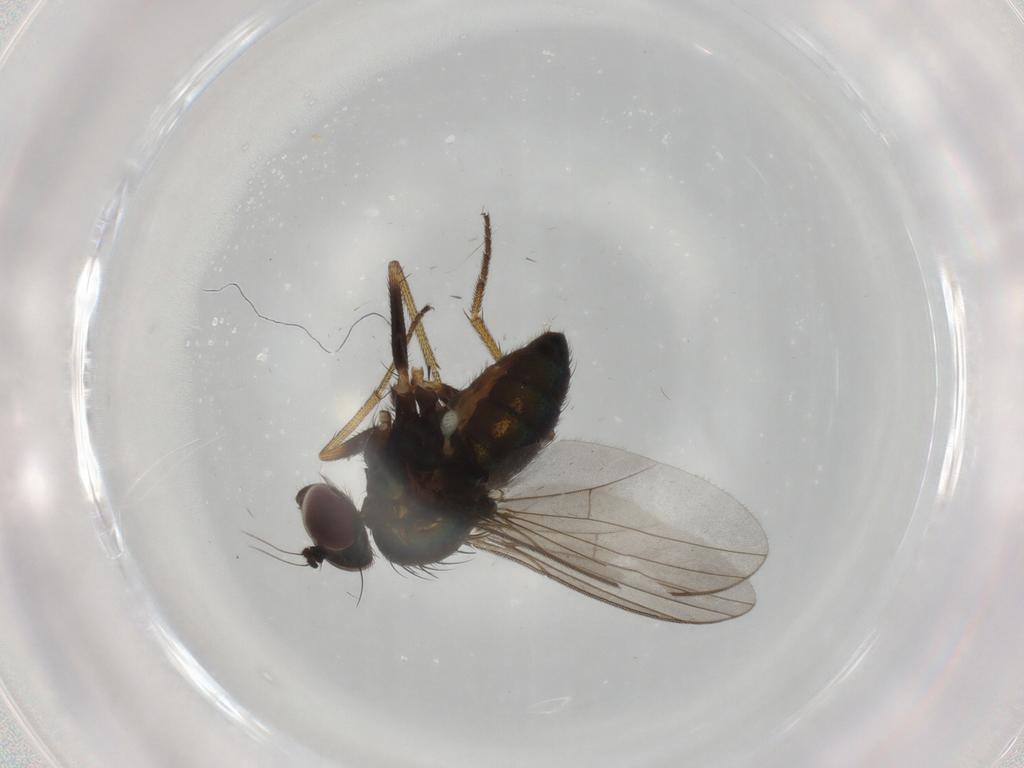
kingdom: Animalia
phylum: Arthropoda
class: Insecta
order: Diptera
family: Dolichopodidae
